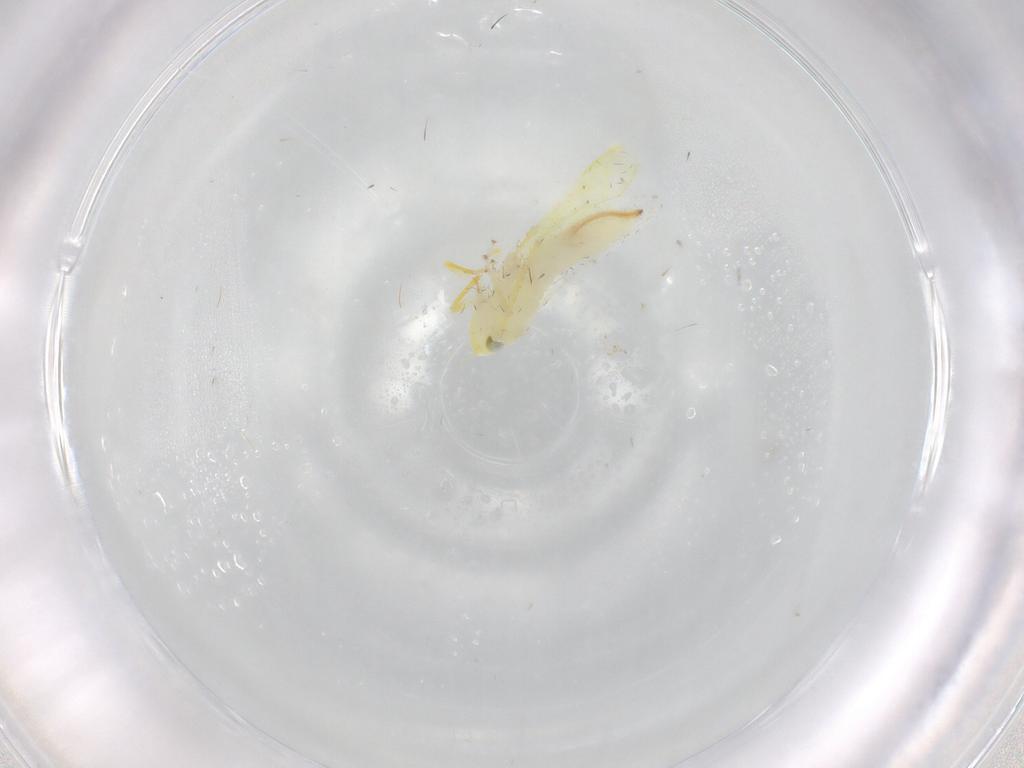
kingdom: Animalia
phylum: Arthropoda
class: Insecta
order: Hemiptera
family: Cicadellidae
